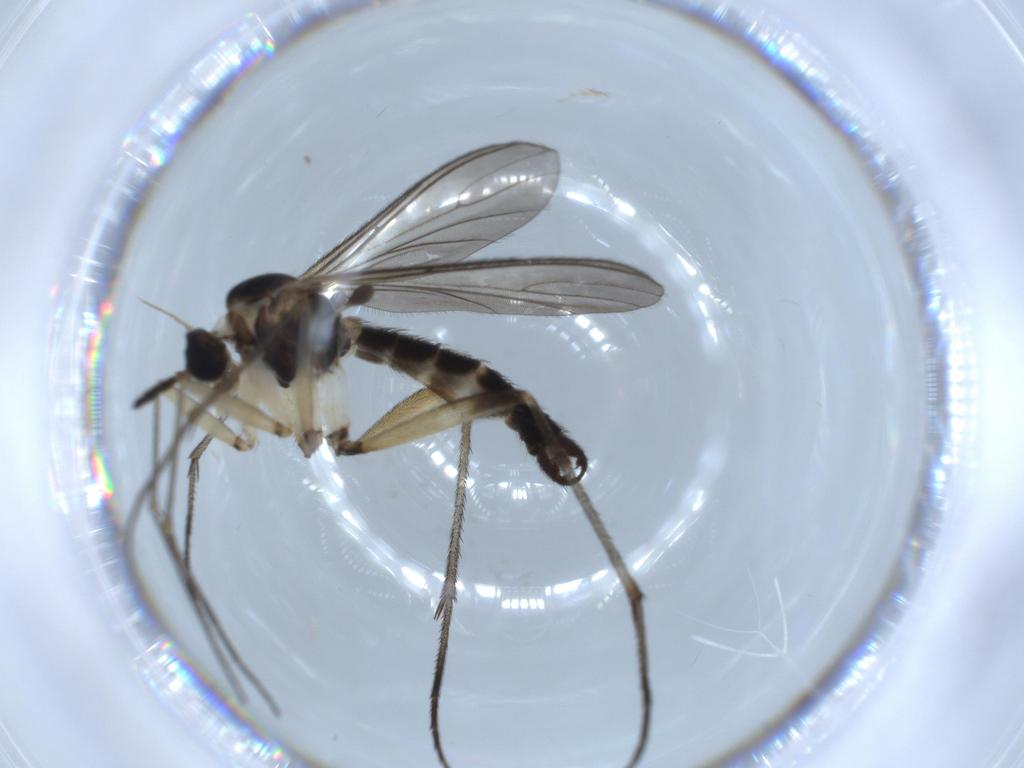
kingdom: Animalia
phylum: Arthropoda
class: Insecta
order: Diptera
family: Sciaridae
